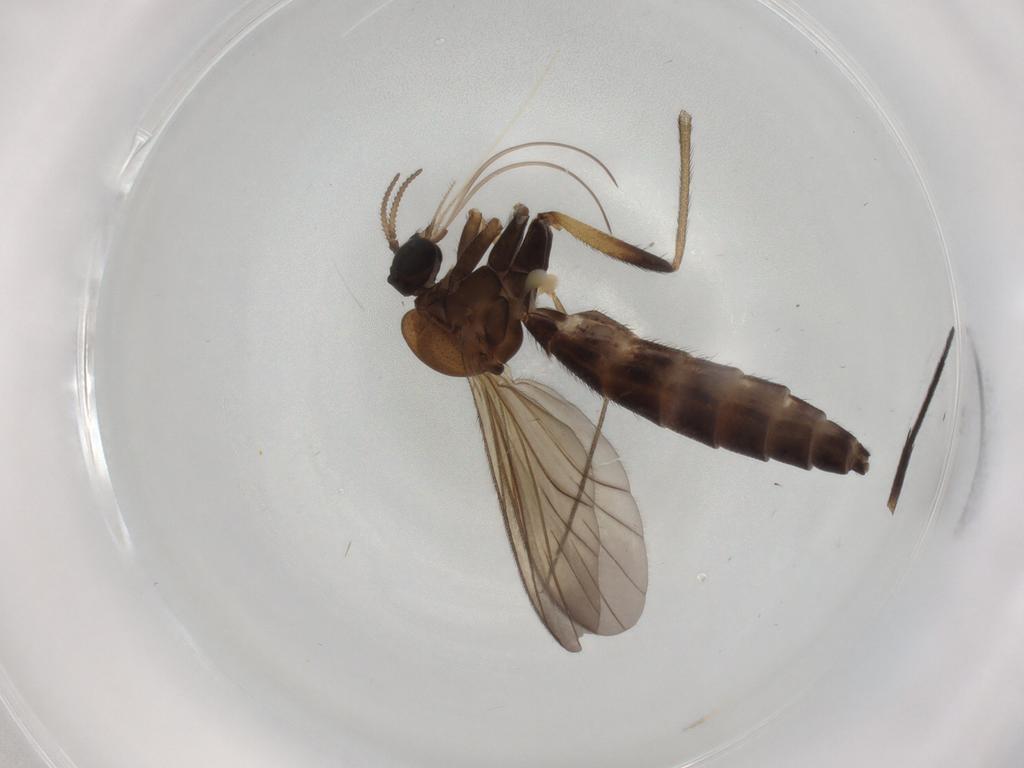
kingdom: Animalia
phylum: Arthropoda
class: Insecta
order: Diptera
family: Keroplatidae
